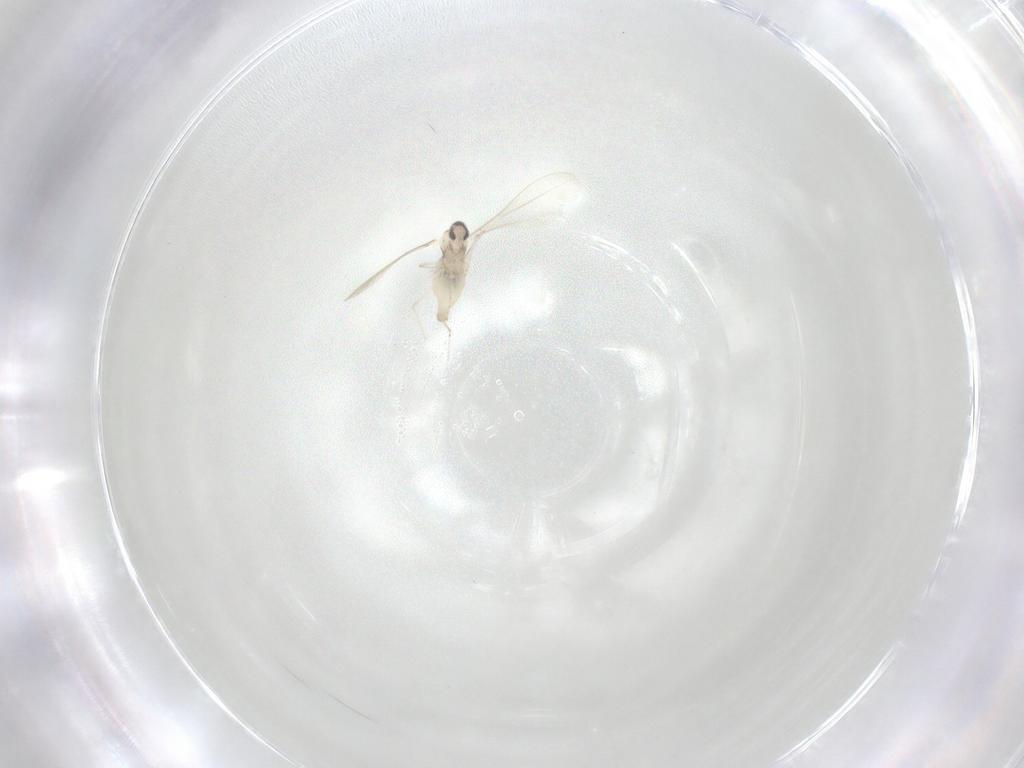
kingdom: Animalia
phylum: Arthropoda
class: Insecta
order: Diptera
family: Cecidomyiidae
